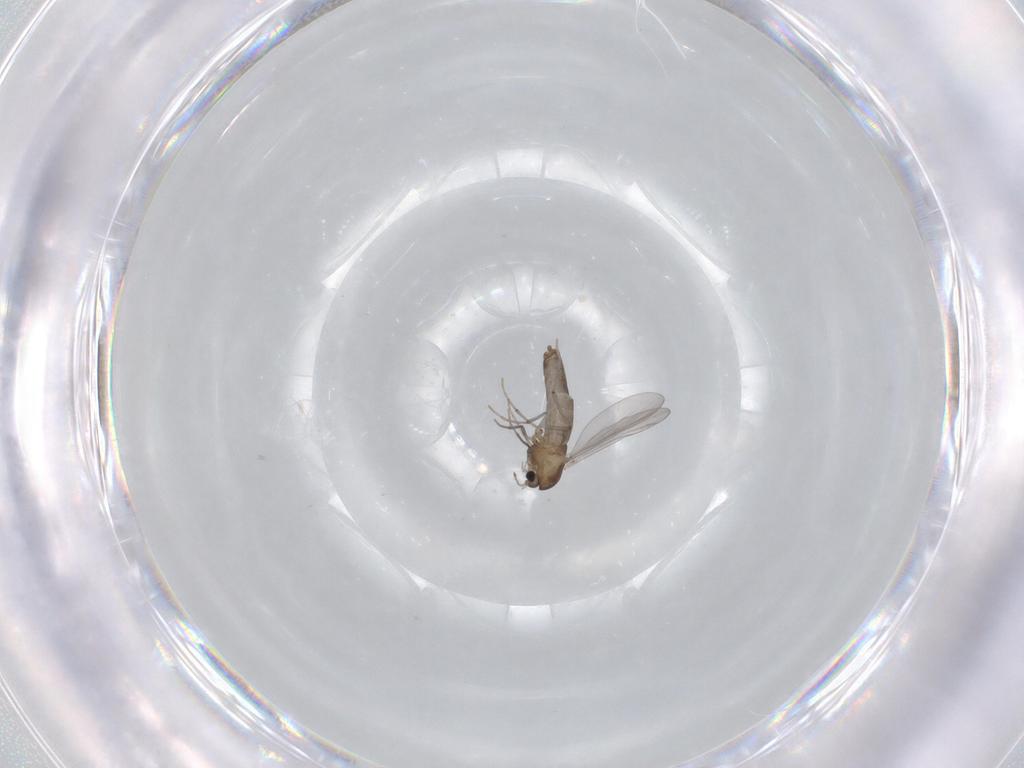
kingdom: Animalia
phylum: Arthropoda
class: Insecta
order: Diptera
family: Chironomidae
